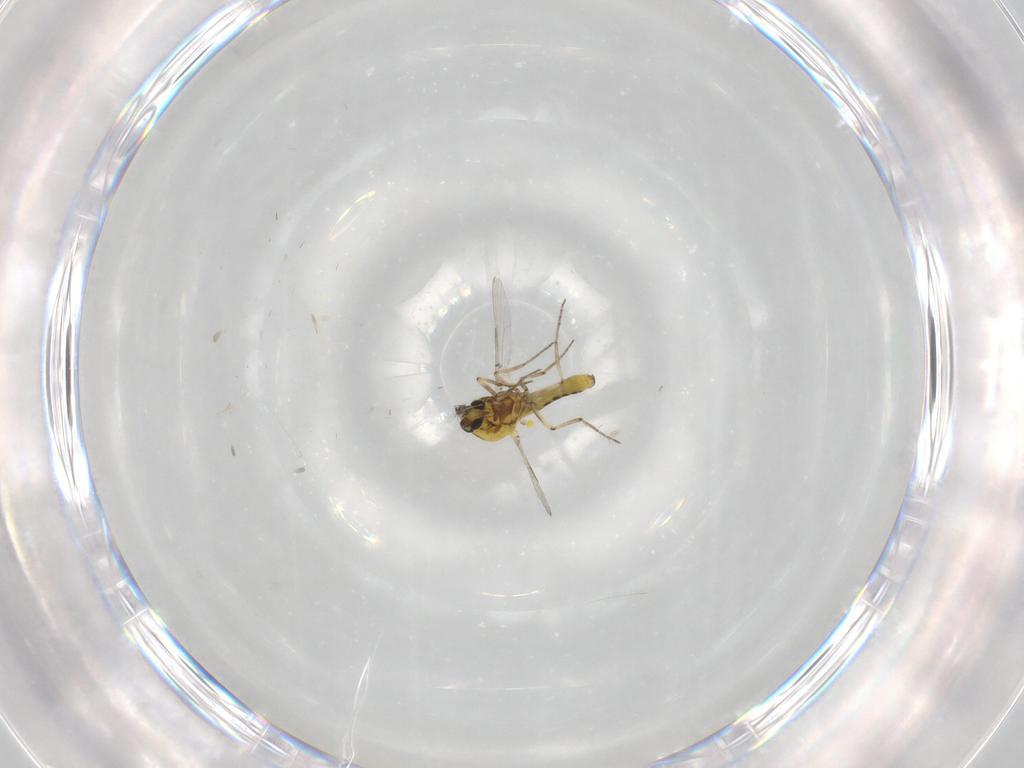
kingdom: Animalia
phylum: Arthropoda
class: Insecta
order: Diptera
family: Ceratopogonidae
